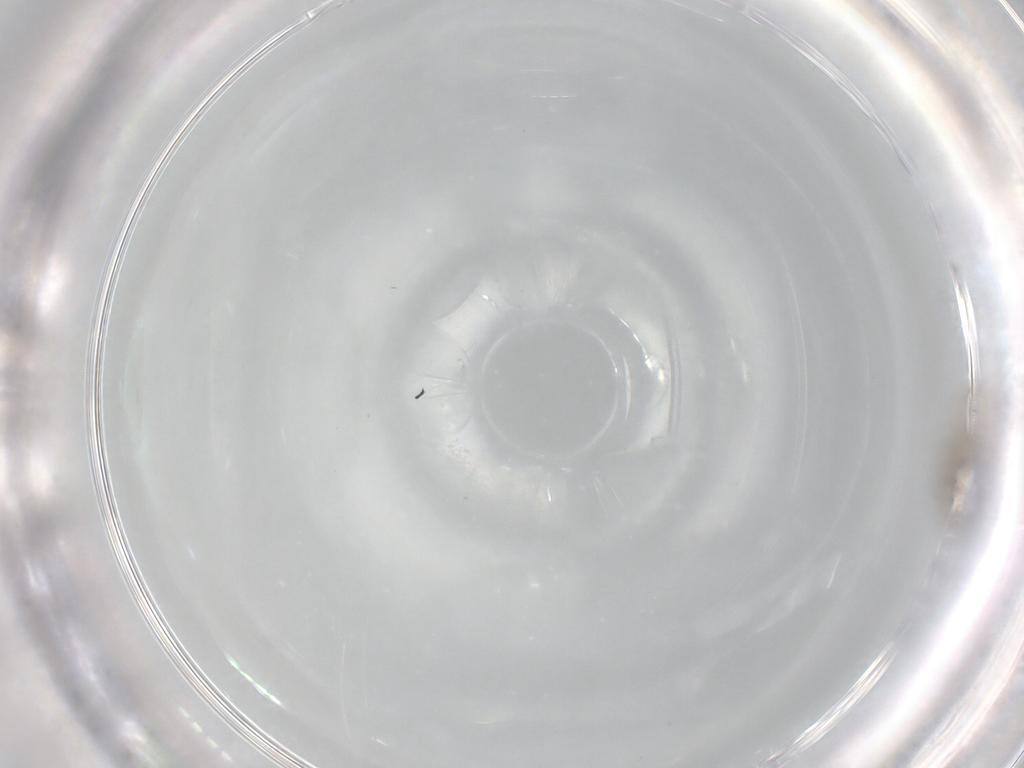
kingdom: Animalia
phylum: Arthropoda
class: Insecta
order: Hymenoptera
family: Ceraphronidae
